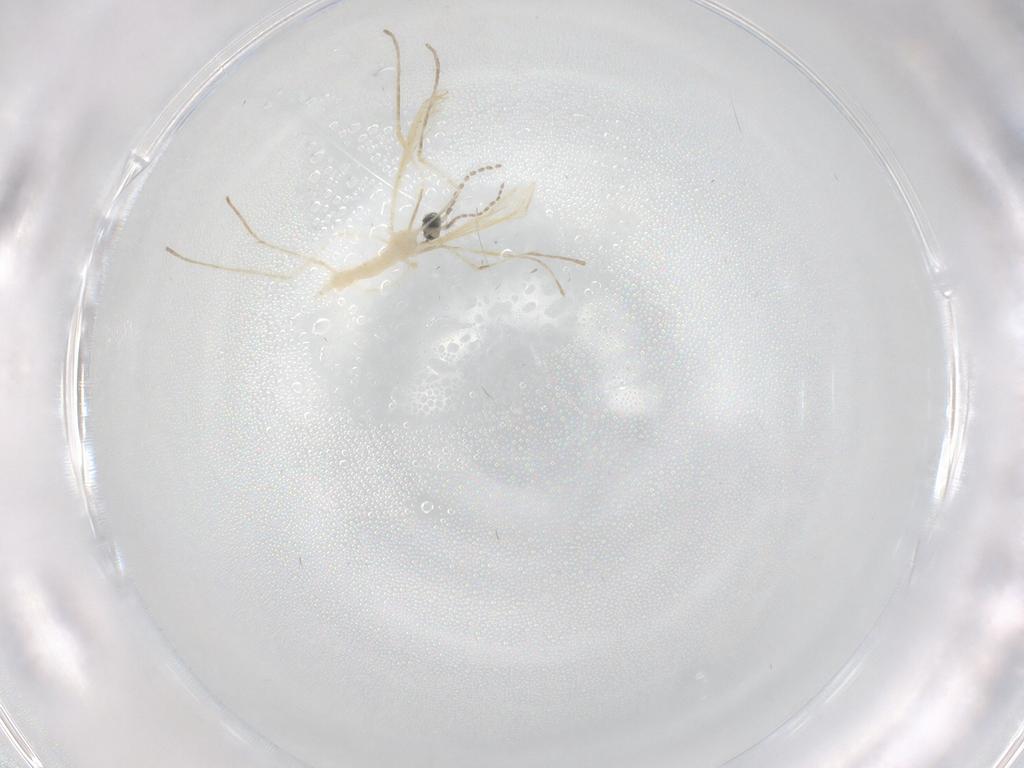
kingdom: Animalia
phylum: Arthropoda
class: Insecta
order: Diptera
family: Cecidomyiidae
